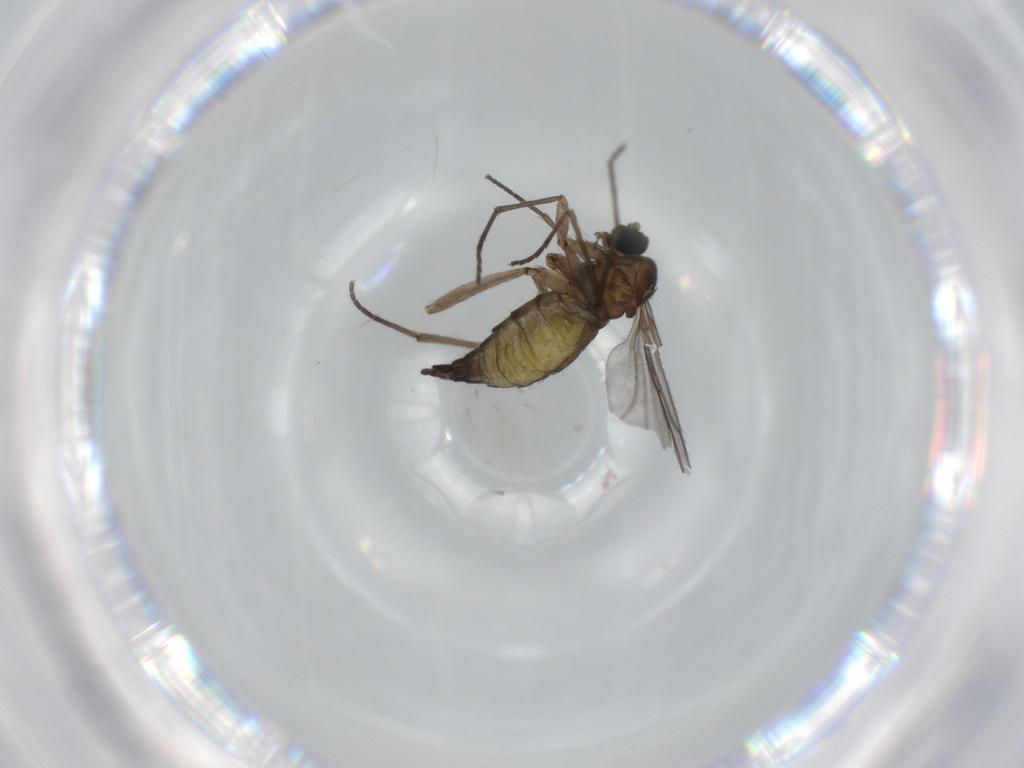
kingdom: Animalia
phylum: Arthropoda
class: Insecta
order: Diptera
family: Sciaridae
